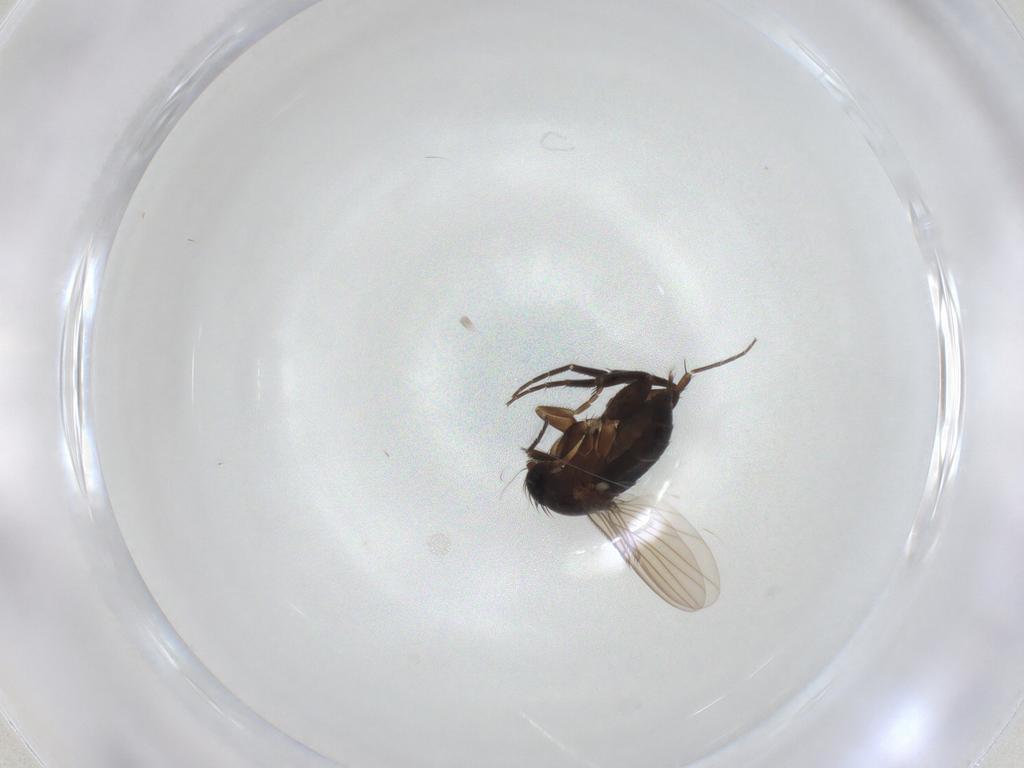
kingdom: Animalia
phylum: Arthropoda
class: Insecta
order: Diptera
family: Phoridae
